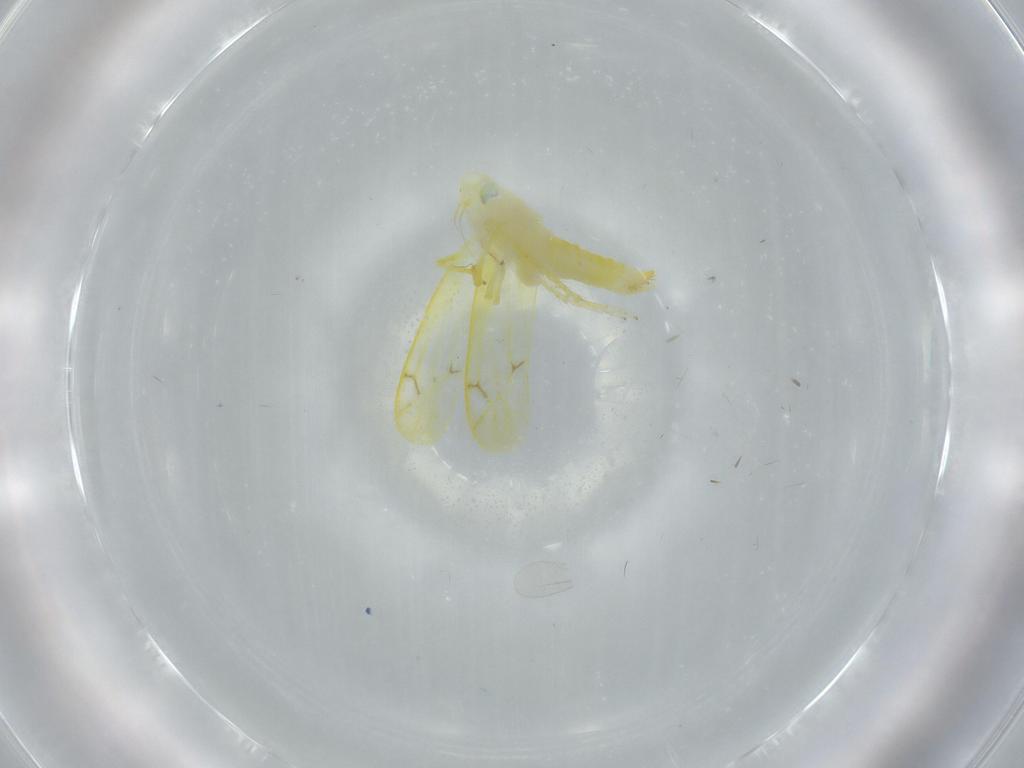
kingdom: Animalia
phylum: Arthropoda
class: Insecta
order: Hemiptera
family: Cicadellidae
